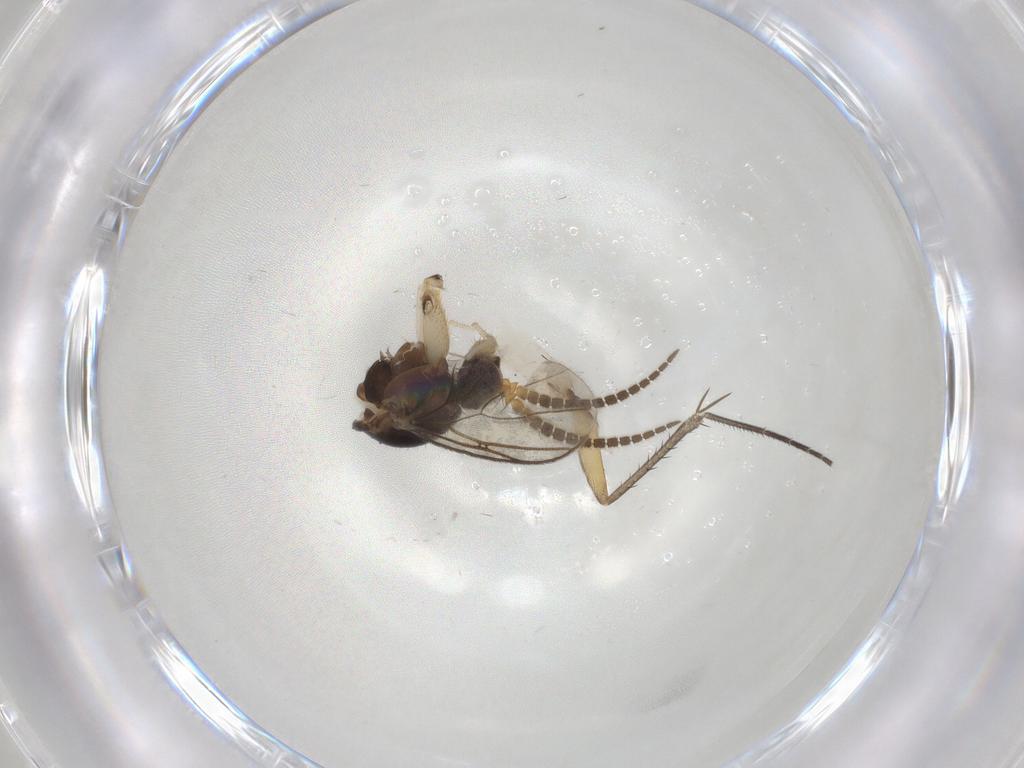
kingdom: Animalia
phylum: Arthropoda
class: Insecta
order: Diptera
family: Mycetophilidae
